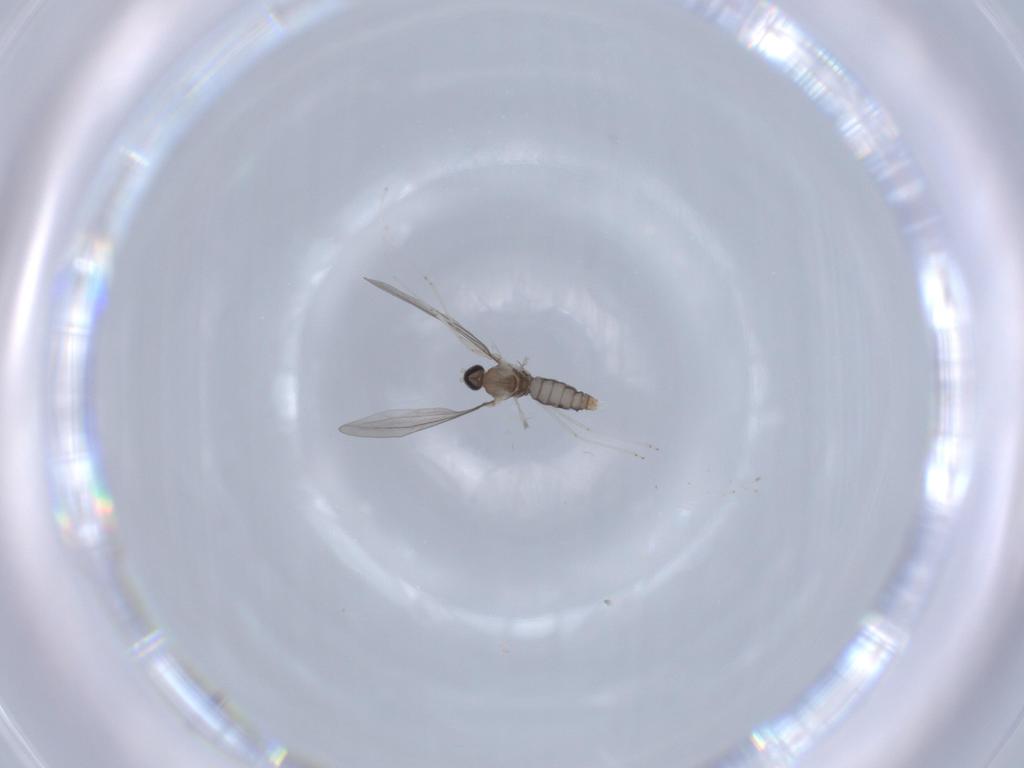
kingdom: Animalia
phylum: Arthropoda
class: Insecta
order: Diptera
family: Cecidomyiidae
